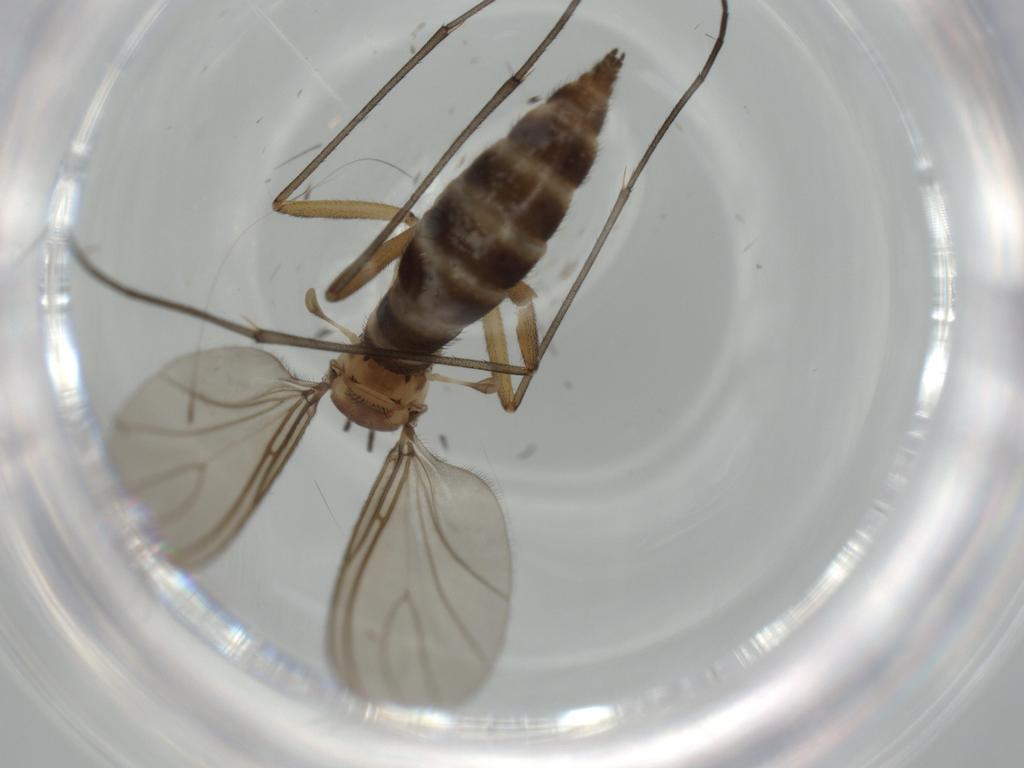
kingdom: Animalia
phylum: Arthropoda
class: Insecta
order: Diptera
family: Sciaridae
